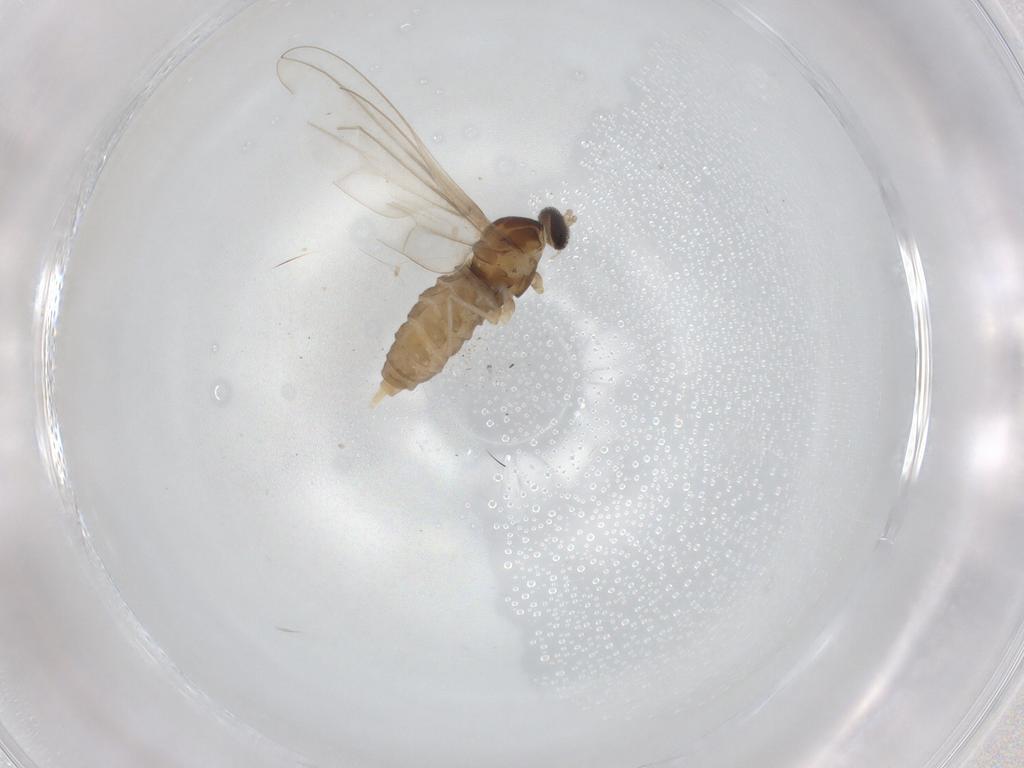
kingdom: Animalia
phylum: Arthropoda
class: Insecta
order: Diptera
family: Cecidomyiidae
